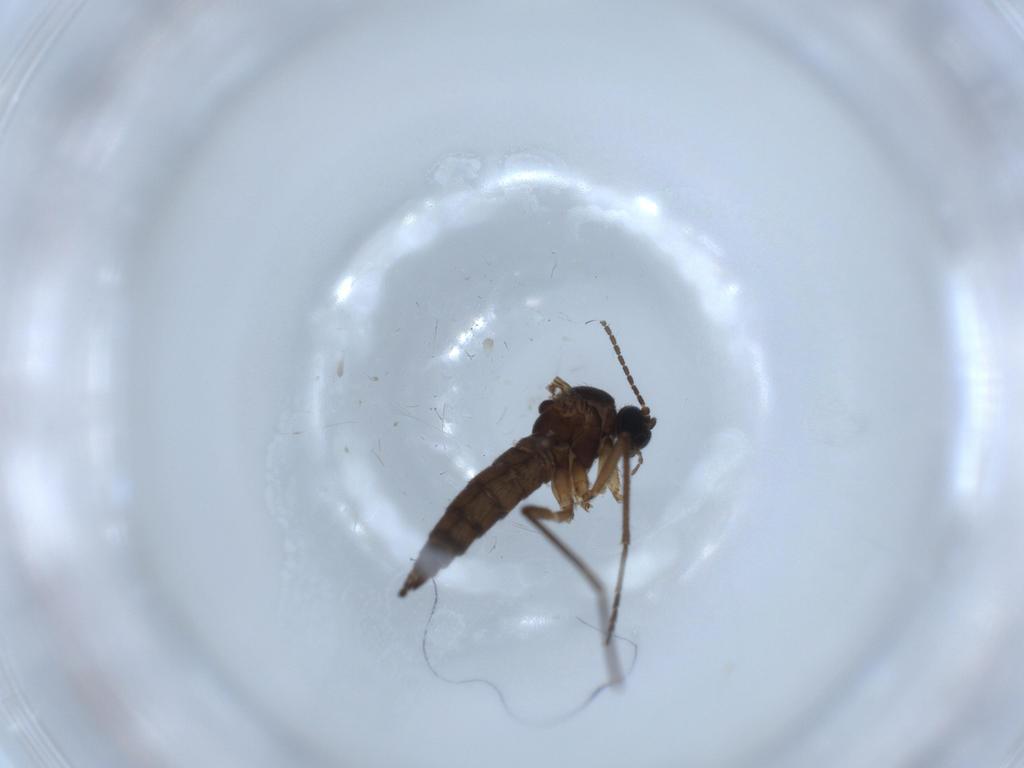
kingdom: Animalia
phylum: Arthropoda
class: Insecta
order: Diptera
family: Sciaridae
